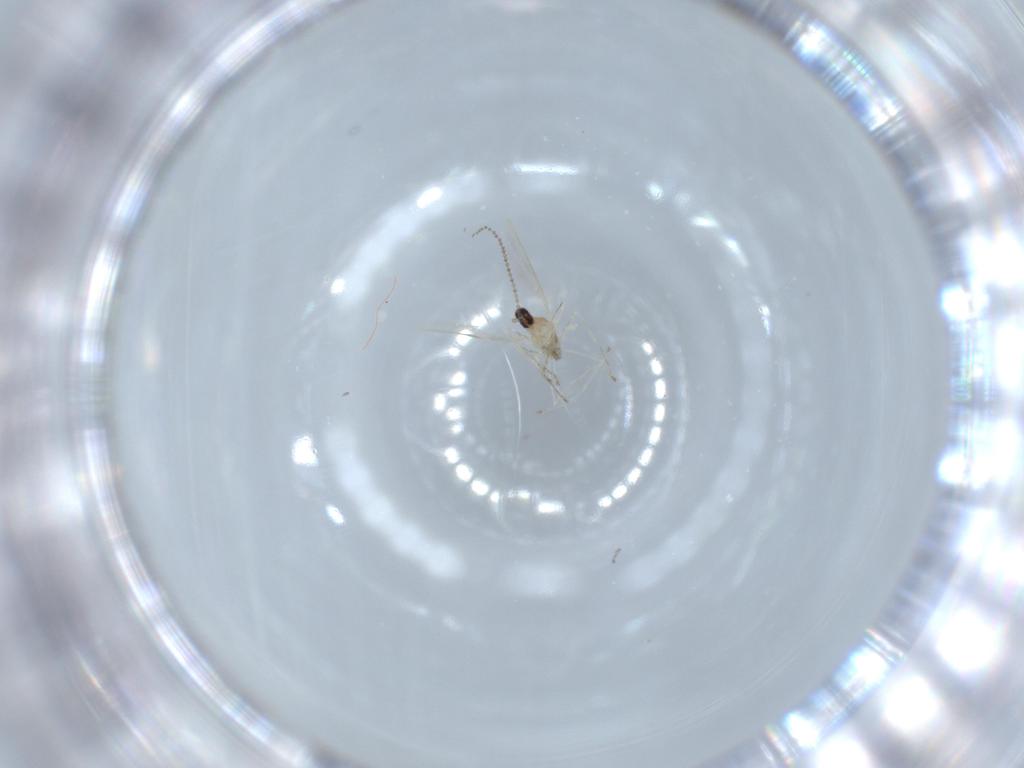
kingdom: Animalia
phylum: Arthropoda
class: Insecta
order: Diptera
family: Cecidomyiidae
